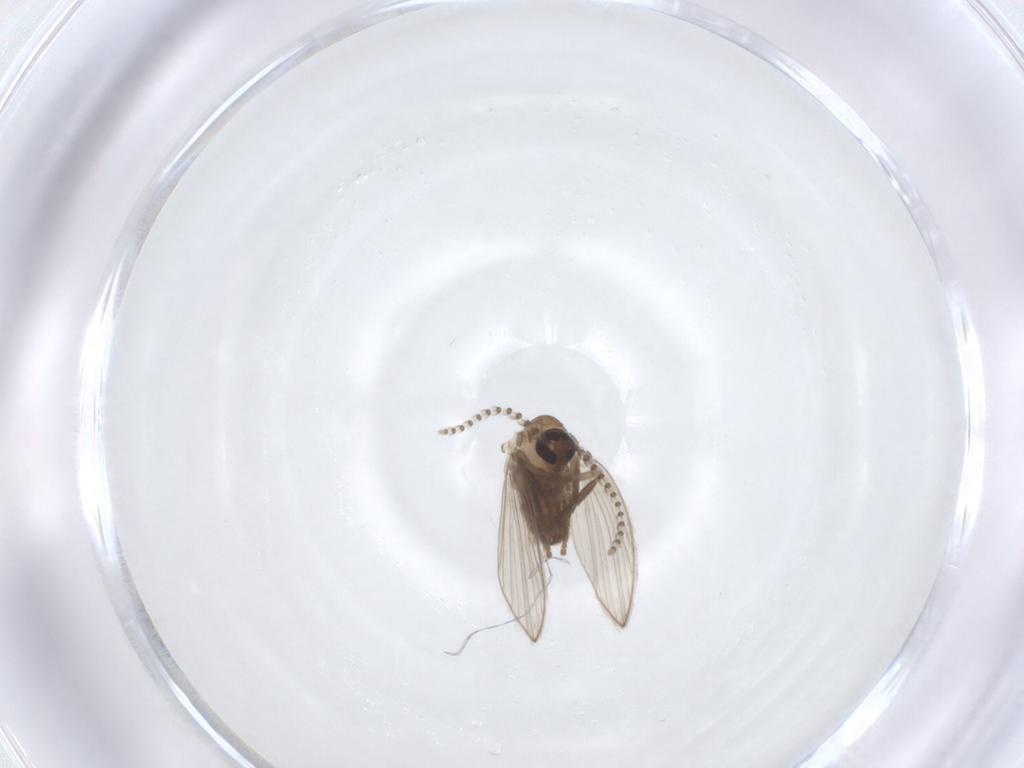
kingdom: Animalia
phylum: Arthropoda
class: Insecta
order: Diptera
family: Psychodidae
